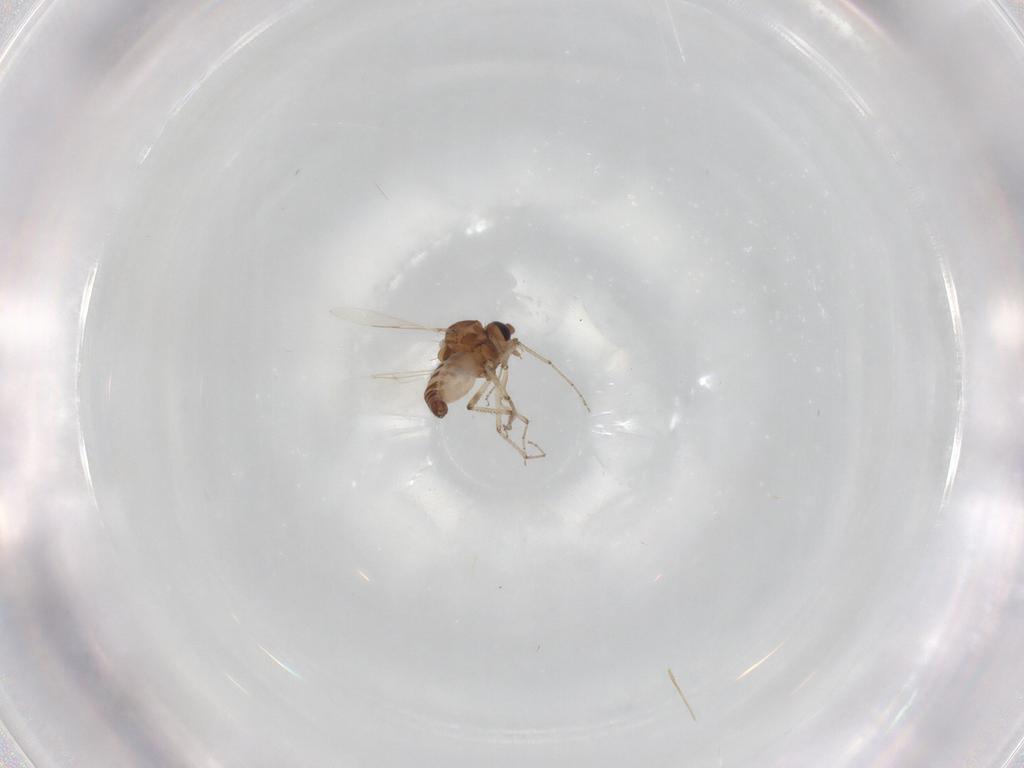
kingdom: Animalia
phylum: Arthropoda
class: Insecta
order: Diptera
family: Ceratopogonidae
